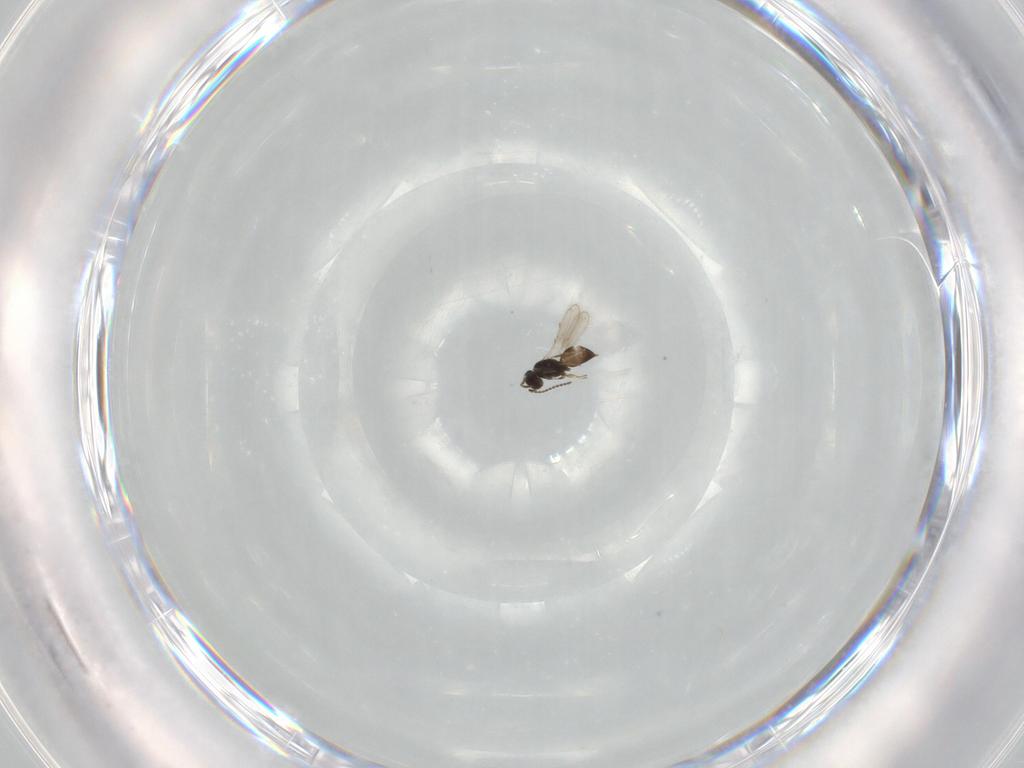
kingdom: Animalia
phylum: Arthropoda
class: Insecta
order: Hymenoptera
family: Scelionidae
